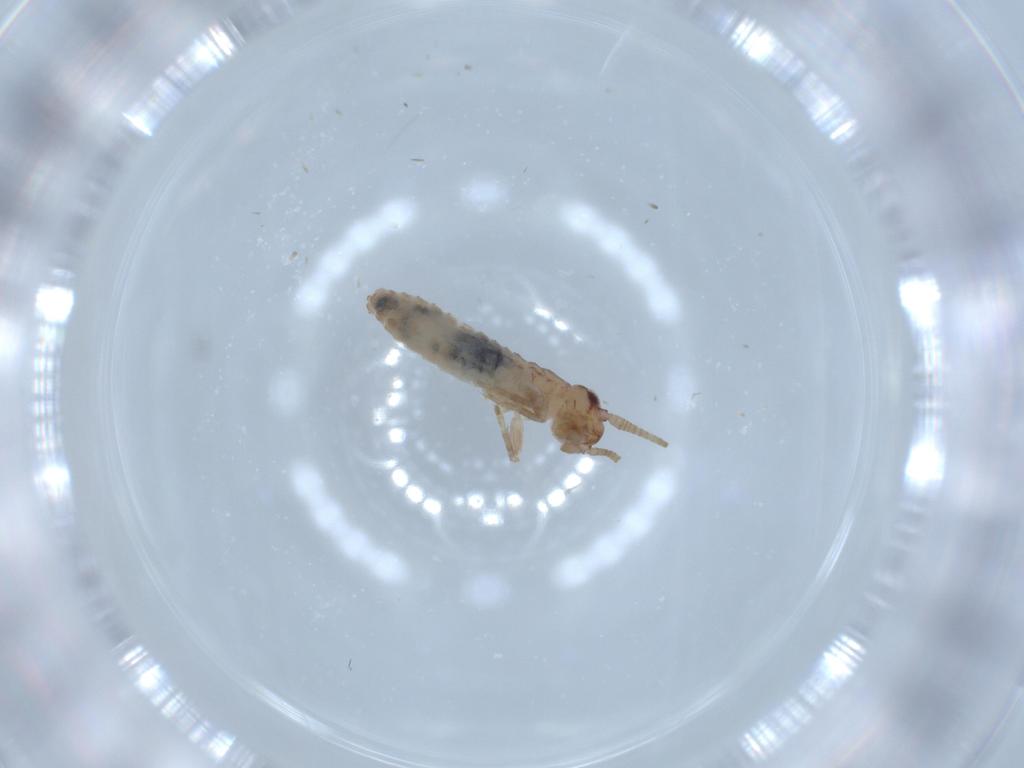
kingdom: Animalia
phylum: Arthropoda
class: Insecta
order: Orthoptera
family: Mogoplistidae
